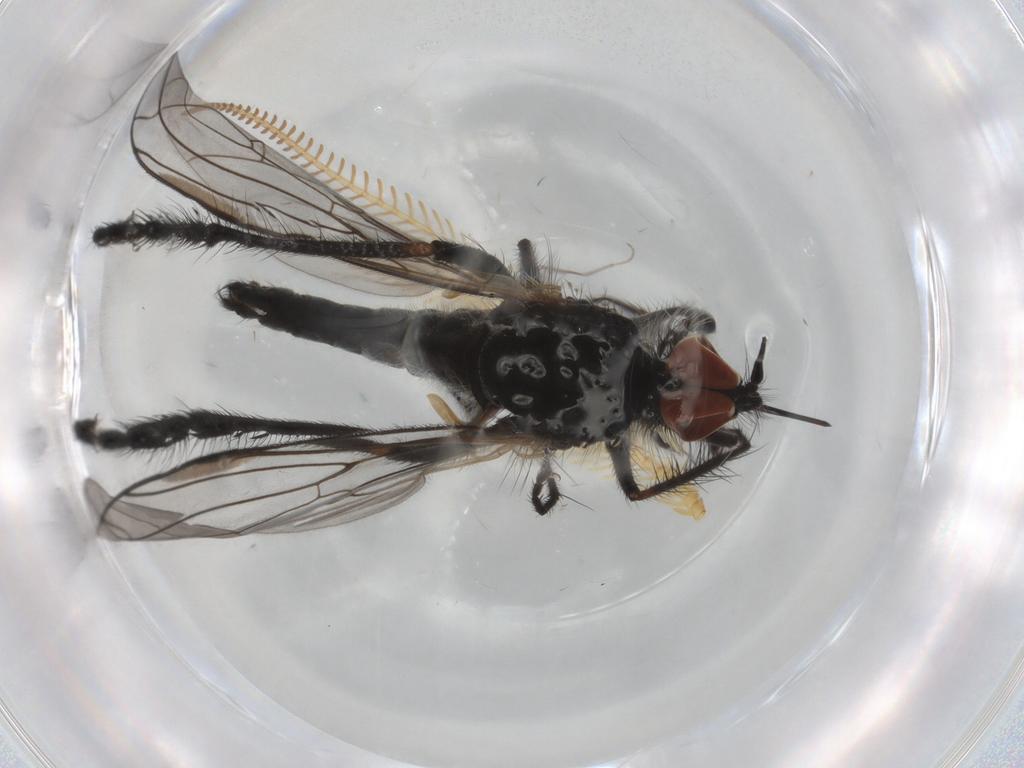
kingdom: Animalia
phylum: Arthropoda
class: Insecta
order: Diptera
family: Empididae
